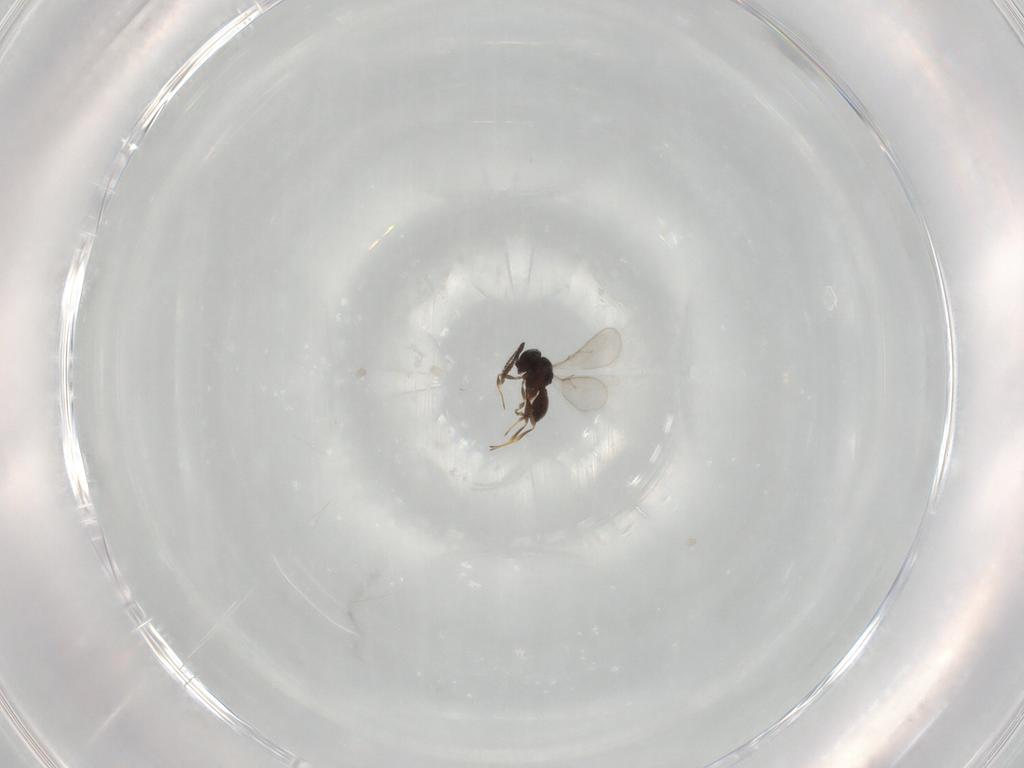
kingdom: Animalia
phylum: Arthropoda
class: Insecta
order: Hymenoptera
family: Scelionidae
